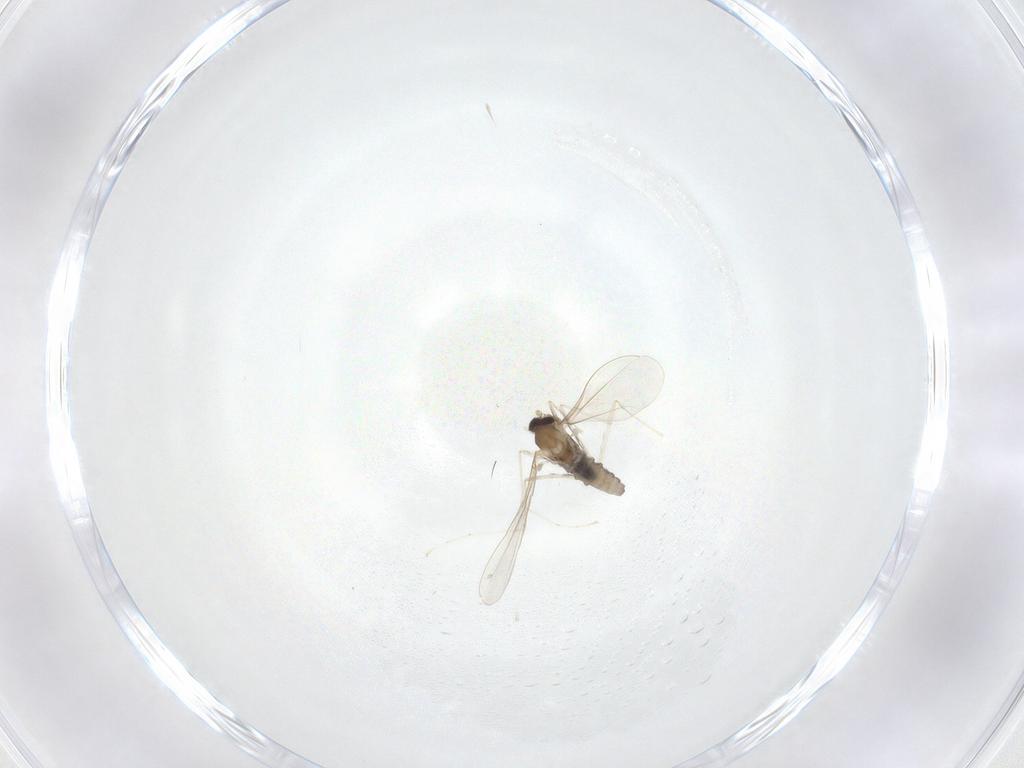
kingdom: Animalia
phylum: Arthropoda
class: Insecta
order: Diptera
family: Cecidomyiidae
